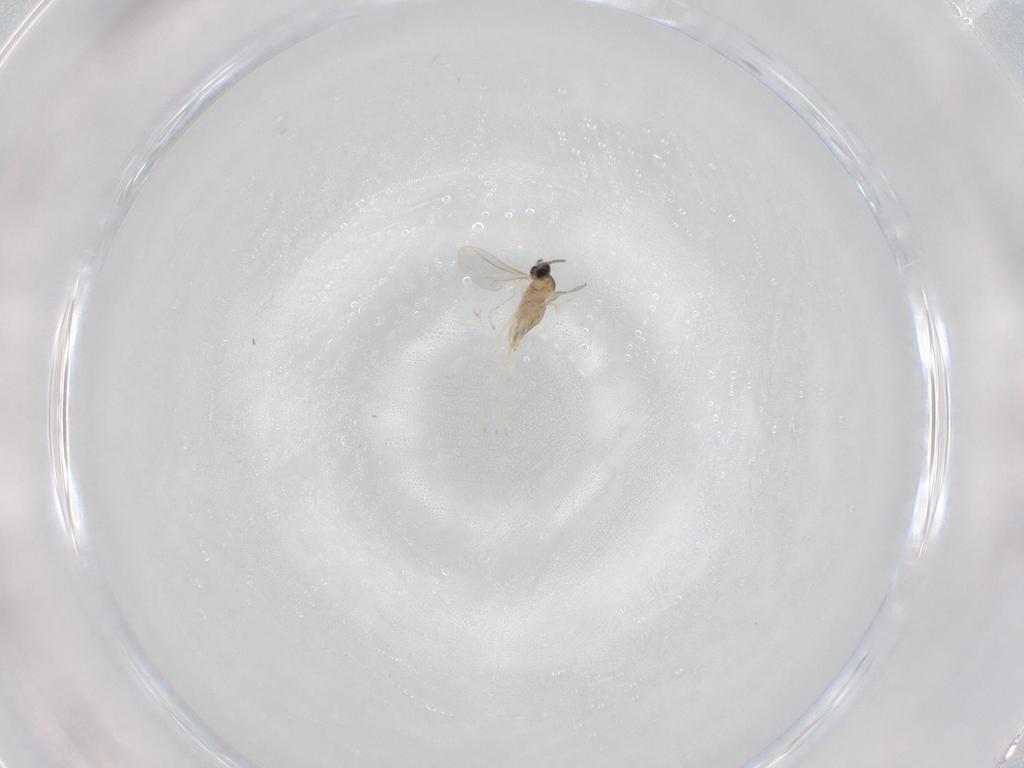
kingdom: Animalia
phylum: Arthropoda
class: Insecta
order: Diptera
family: Cecidomyiidae
